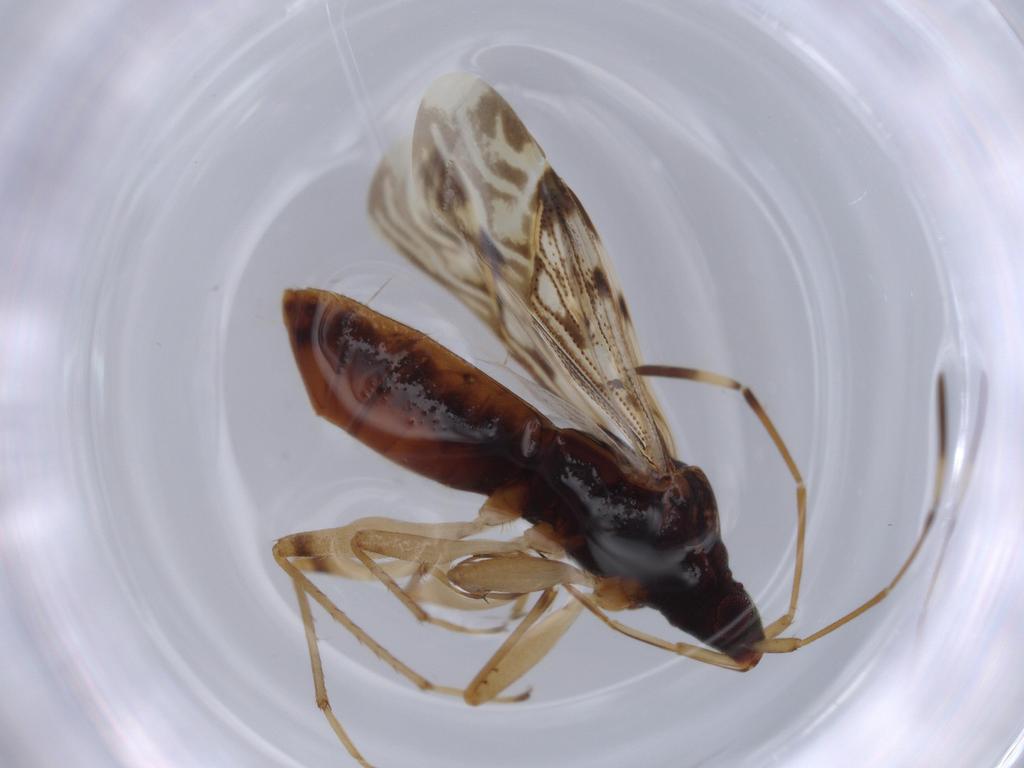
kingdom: Animalia
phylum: Arthropoda
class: Insecta
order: Hemiptera
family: Rhyparochromidae
